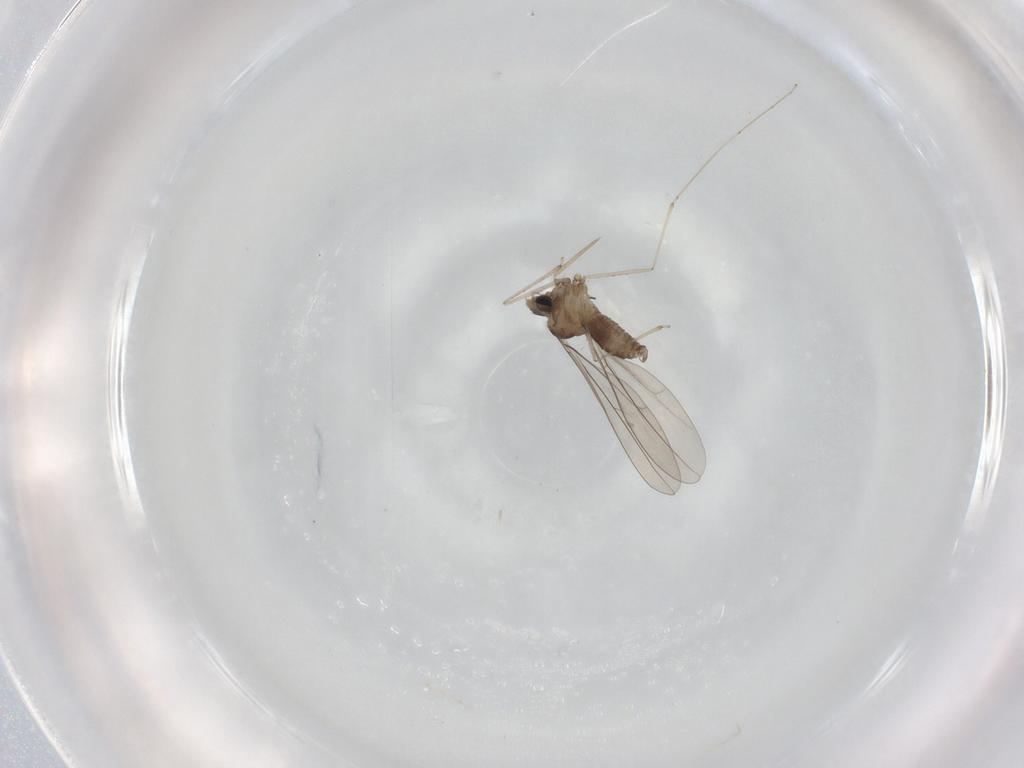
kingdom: Animalia
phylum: Arthropoda
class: Insecta
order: Diptera
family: Cecidomyiidae
